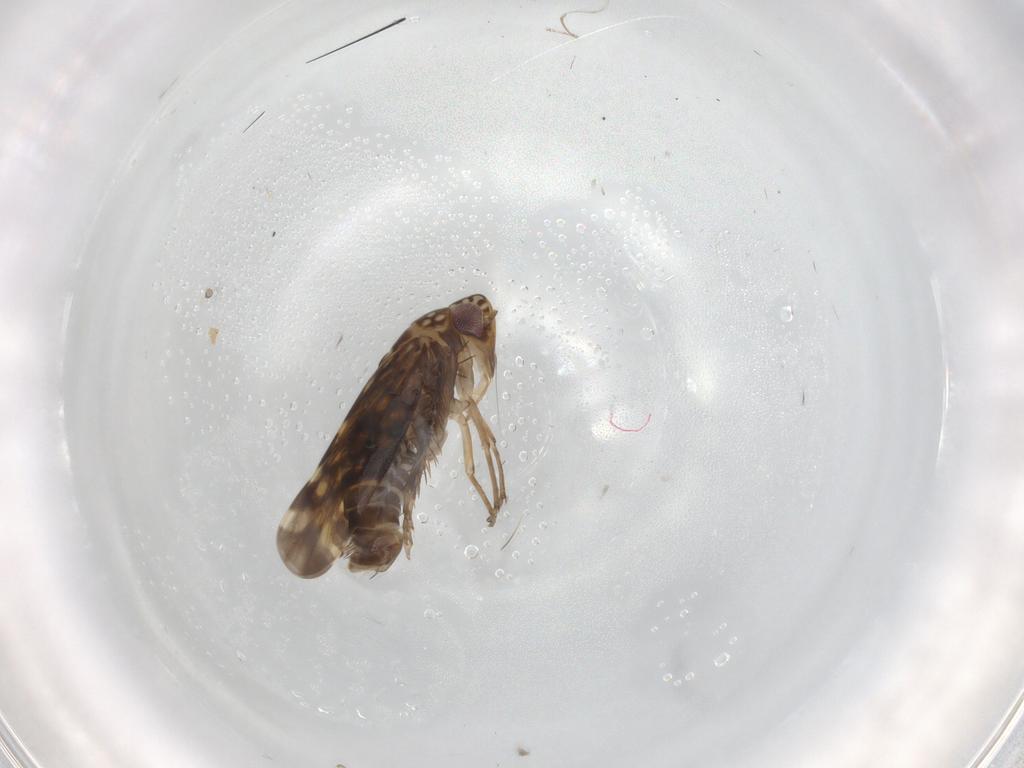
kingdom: Animalia
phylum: Arthropoda
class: Insecta
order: Hemiptera
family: Cicadellidae
